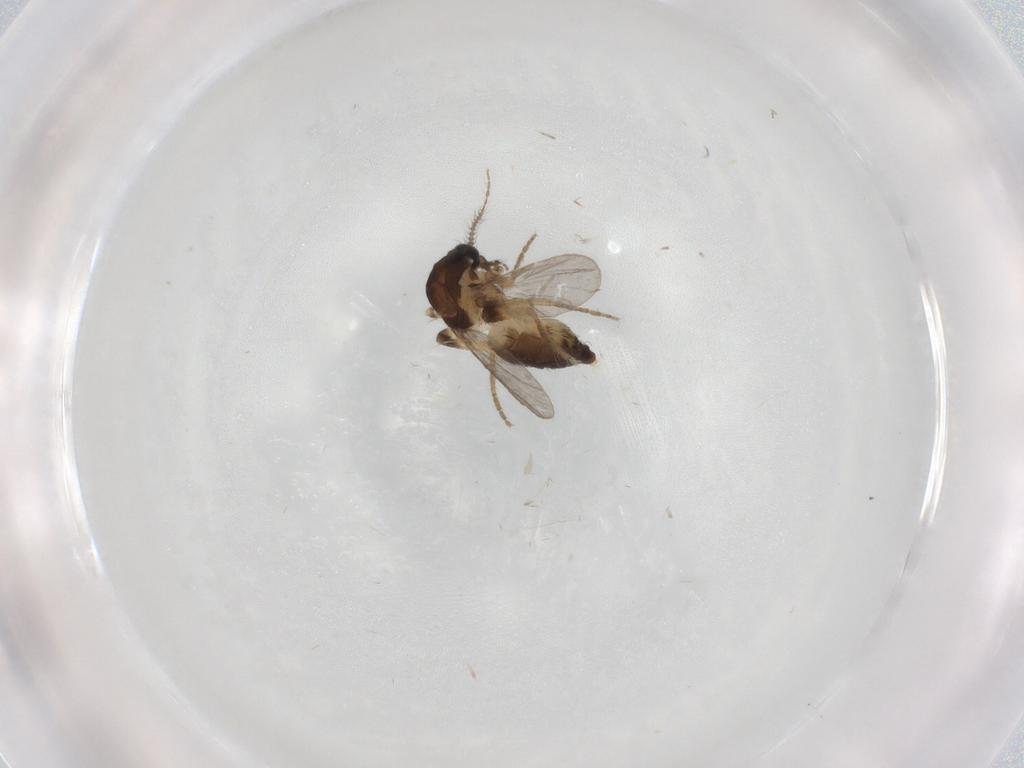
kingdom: Animalia
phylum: Arthropoda
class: Insecta
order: Diptera
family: Ceratopogonidae
